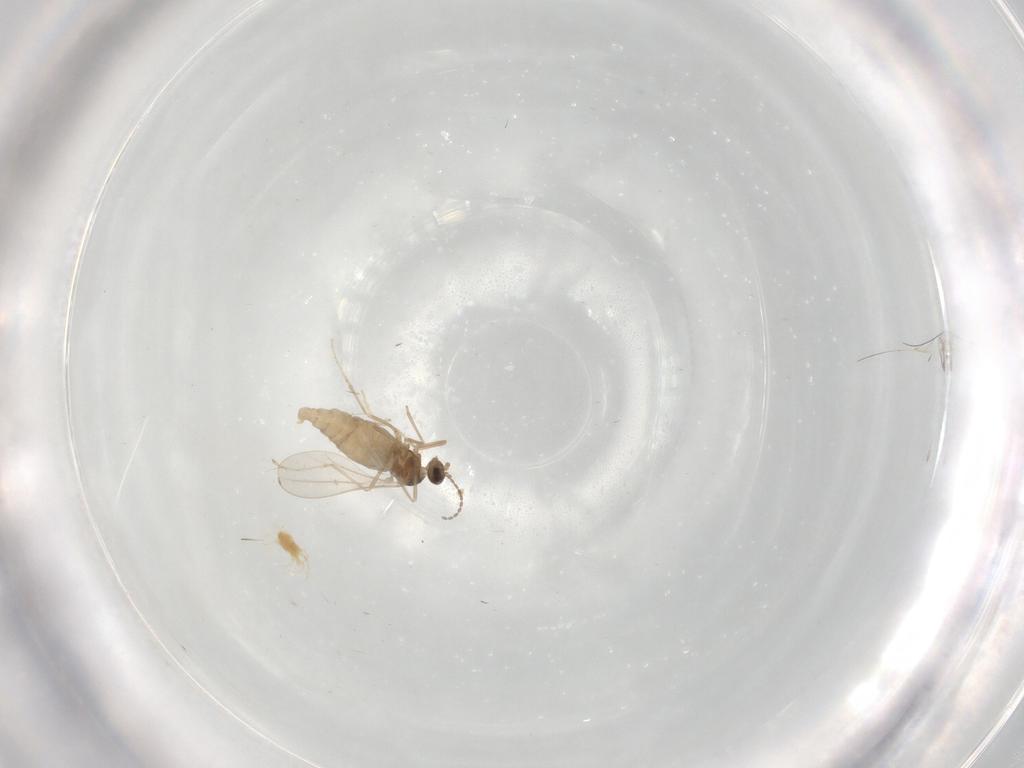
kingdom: Animalia
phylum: Arthropoda
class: Insecta
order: Diptera
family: Cecidomyiidae
